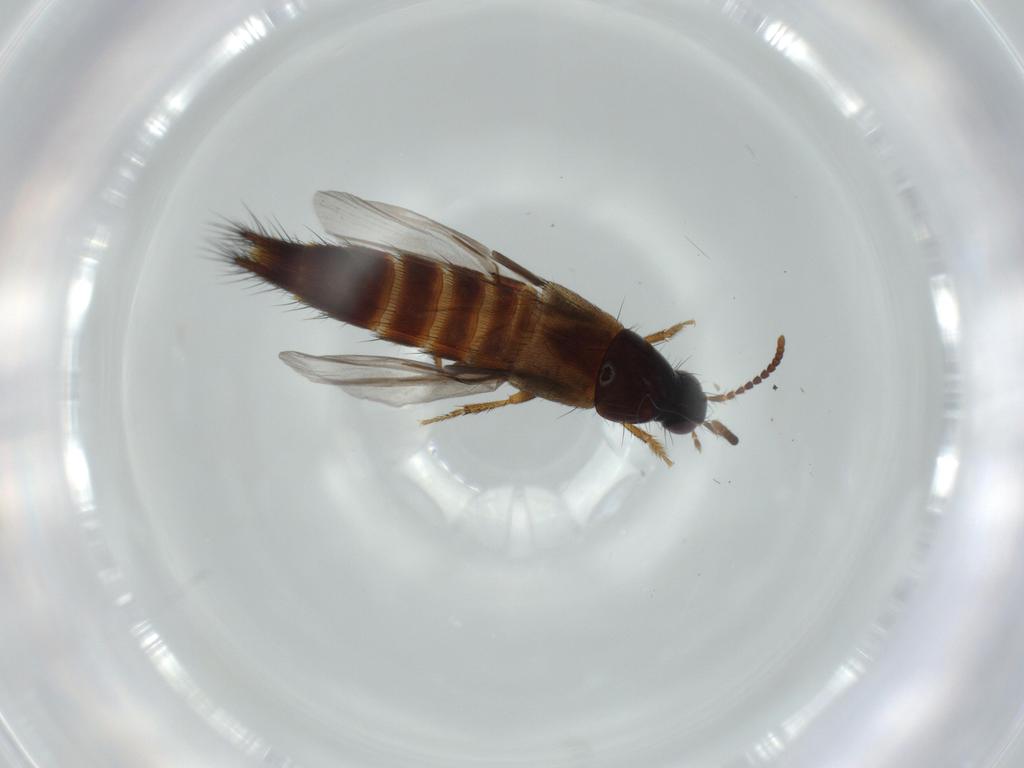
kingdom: Animalia
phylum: Arthropoda
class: Insecta
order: Coleoptera
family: Staphylinidae
